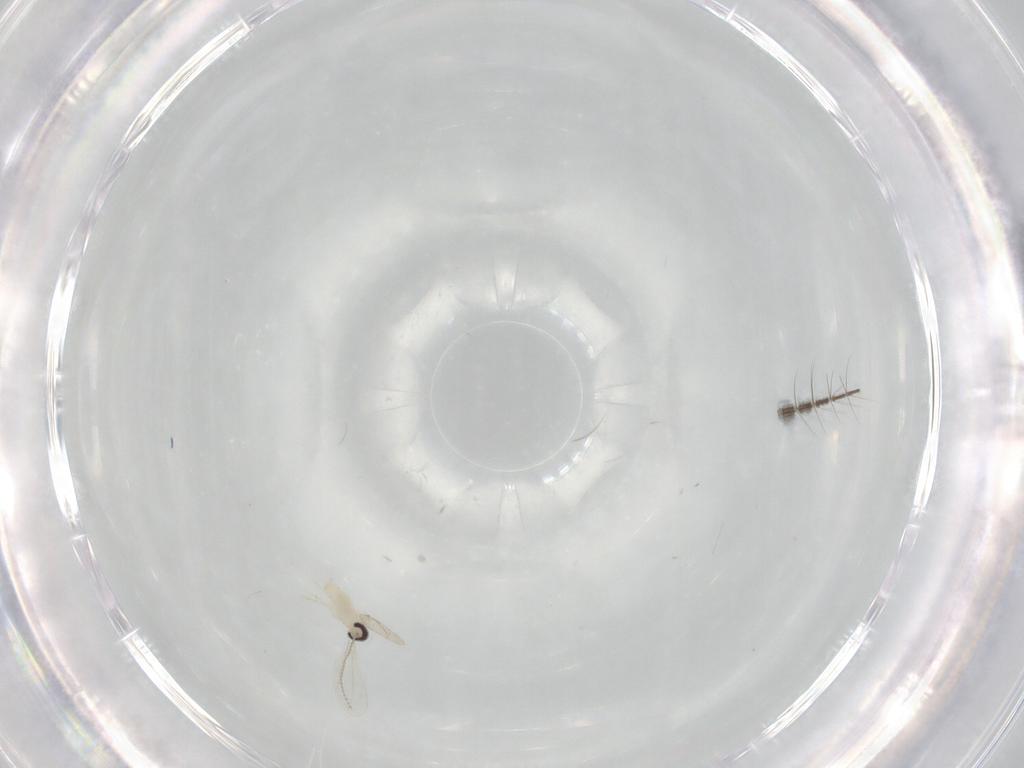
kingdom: Animalia
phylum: Arthropoda
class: Insecta
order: Diptera
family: Cecidomyiidae
